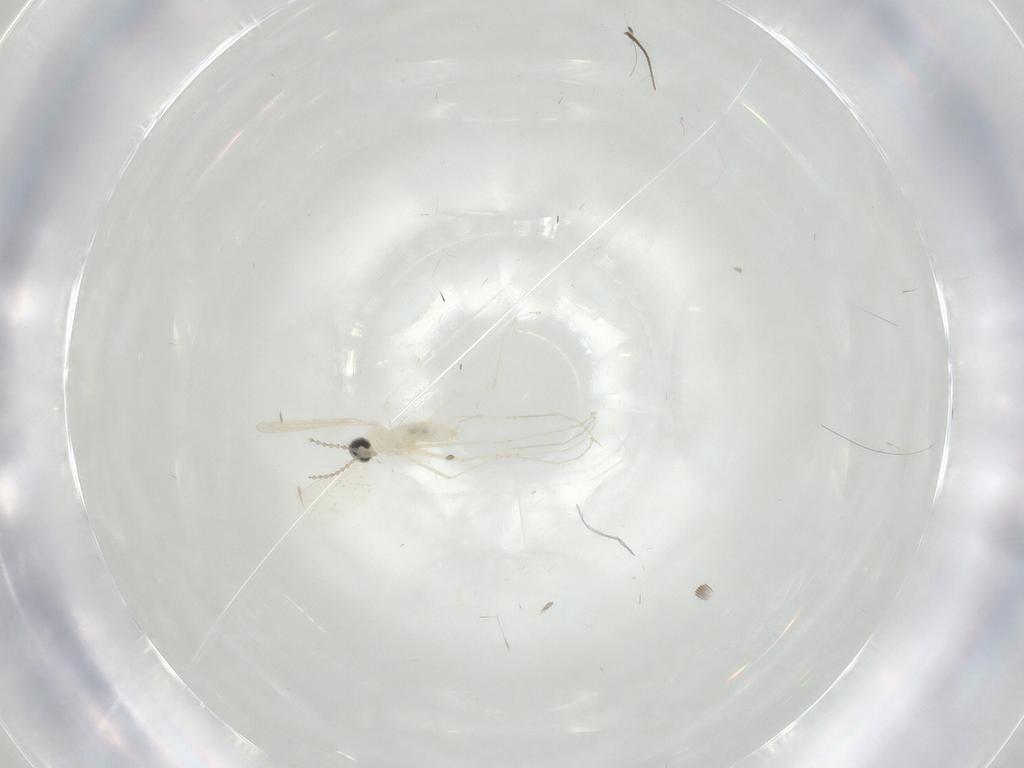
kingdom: Animalia
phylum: Arthropoda
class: Insecta
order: Diptera
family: Cecidomyiidae
